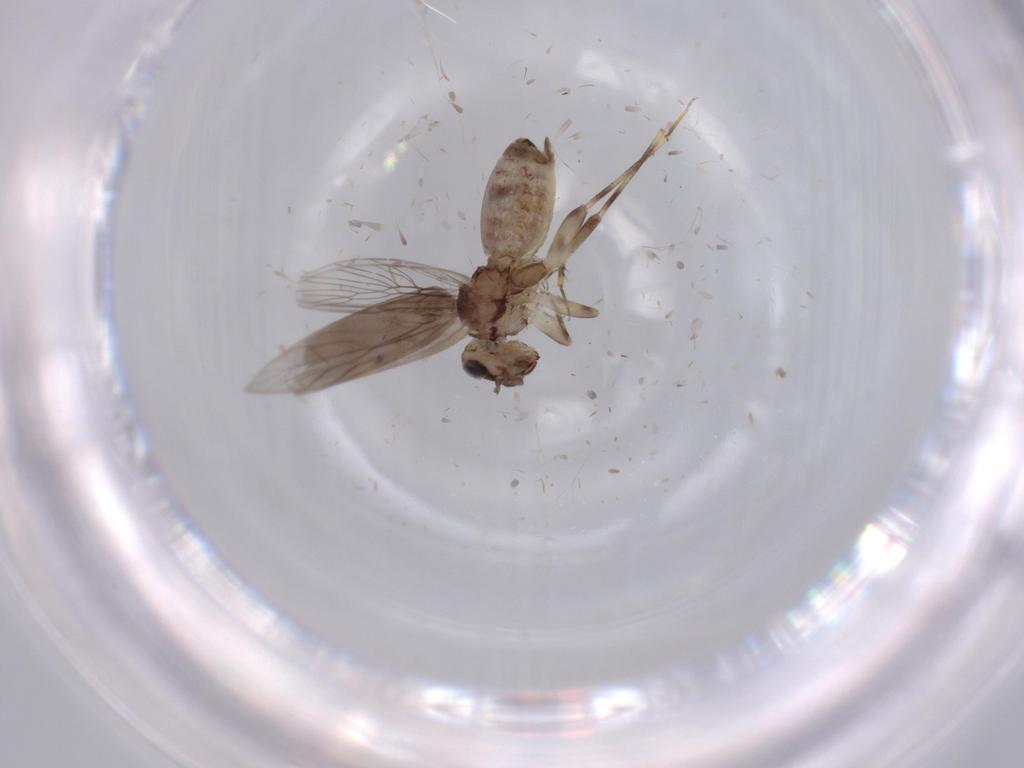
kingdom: Animalia
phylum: Arthropoda
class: Insecta
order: Psocodea
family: Lepidopsocidae
